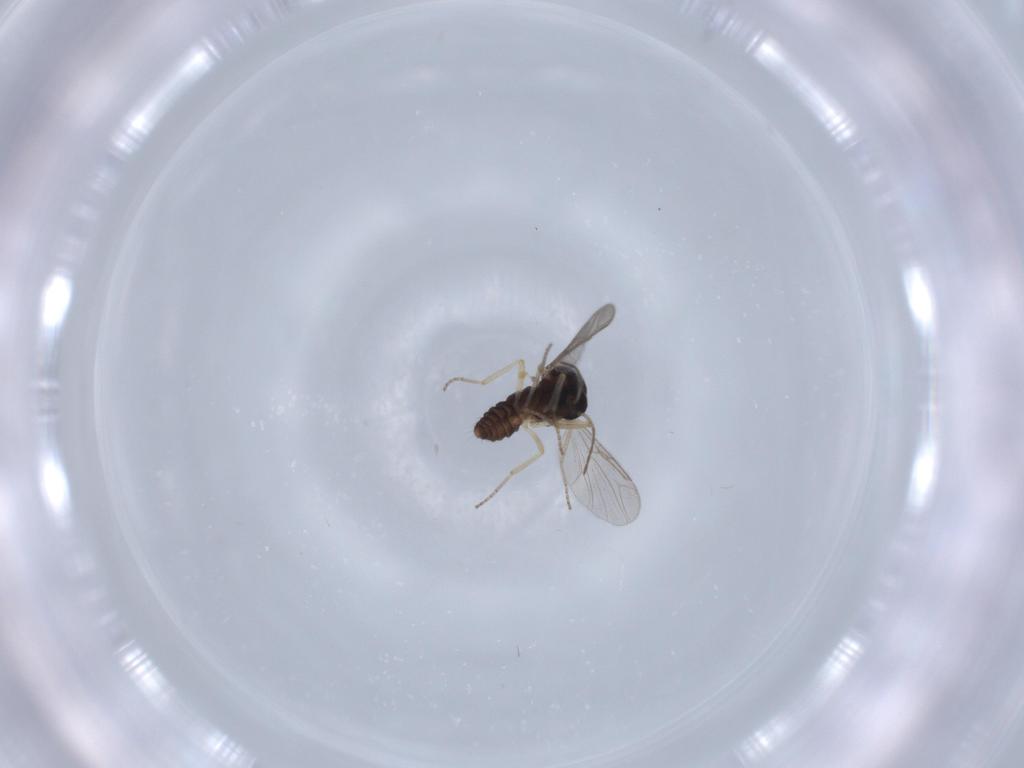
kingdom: Animalia
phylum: Arthropoda
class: Insecta
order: Diptera
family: Ceratopogonidae
